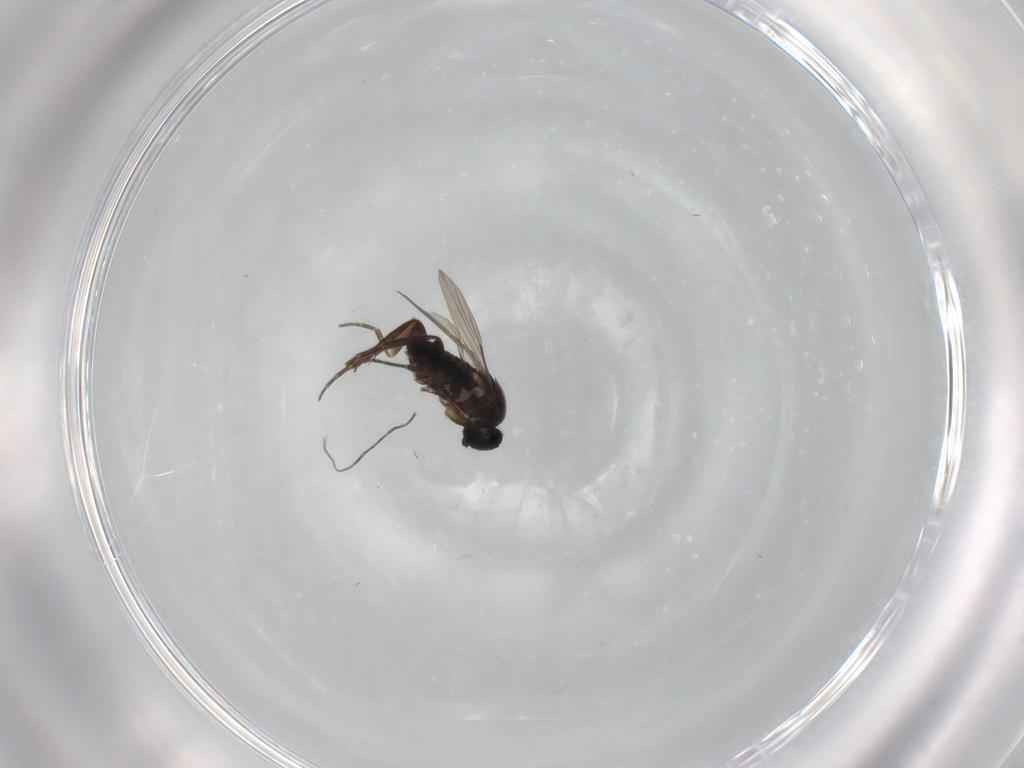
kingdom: Animalia
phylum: Arthropoda
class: Insecta
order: Diptera
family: Phoridae
